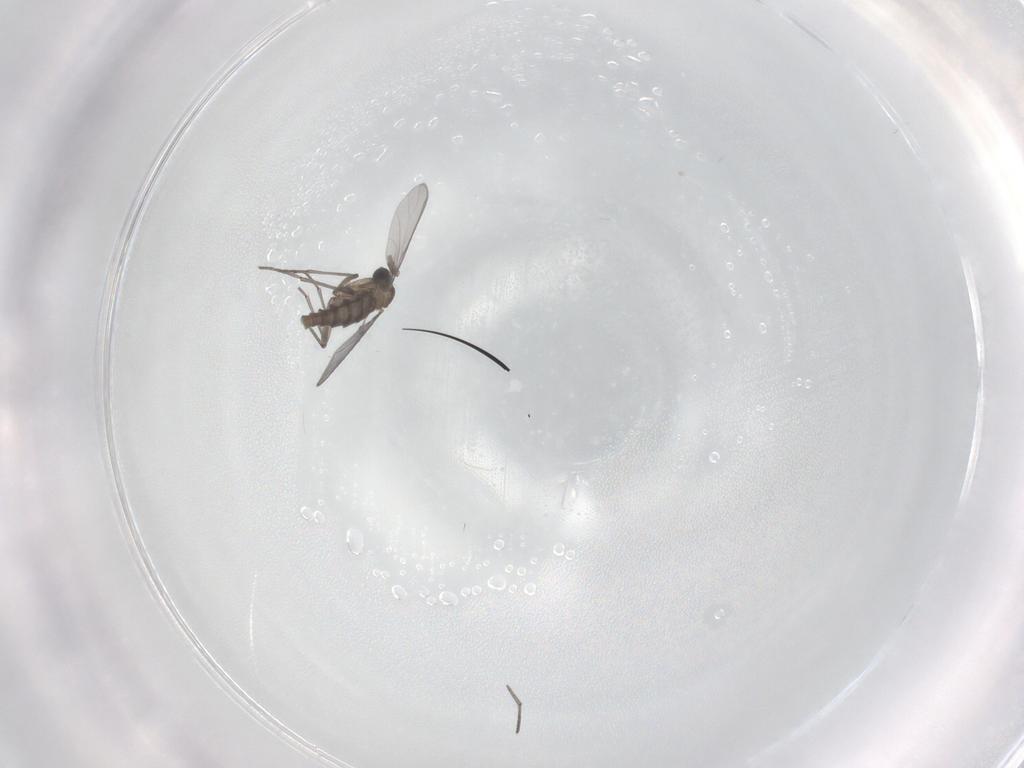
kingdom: Animalia
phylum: Arthropoda
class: Insecta
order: Diptera
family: Calliphoridae
